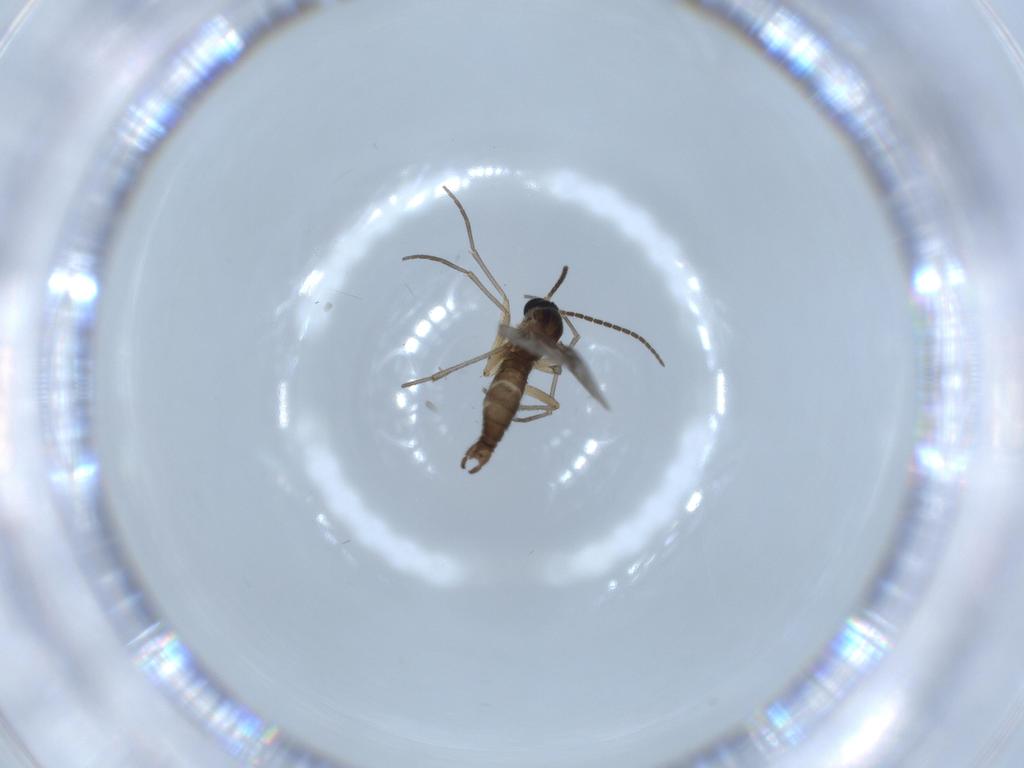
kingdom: Animalia
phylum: Arthropoda
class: Insecta
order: Diptera
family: Sciaridae
